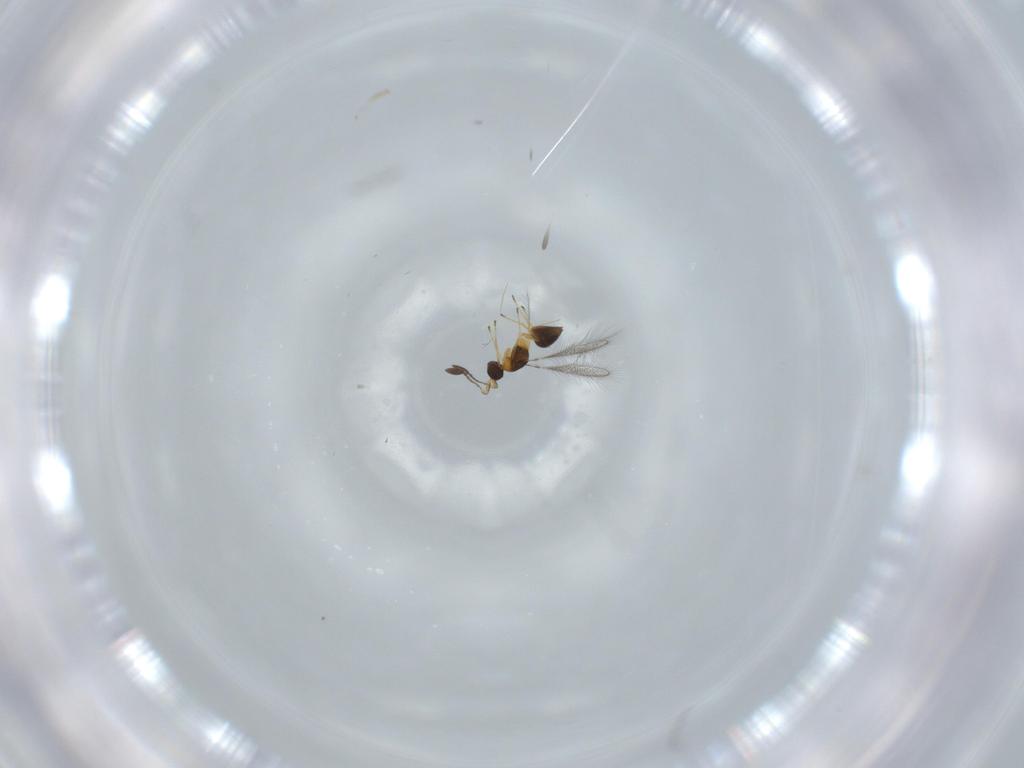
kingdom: Animalia
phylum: Arthropoda
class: Insecta
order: Hymenoptera
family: Mymaridae
